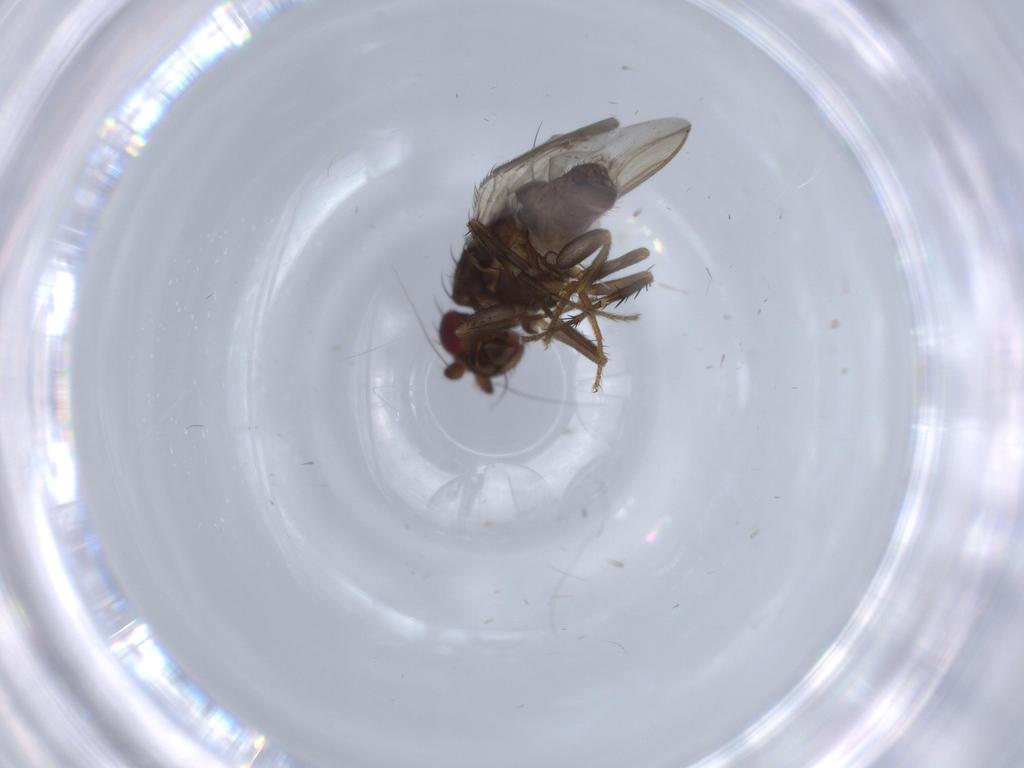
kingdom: Animalia
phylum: Arthropoda
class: Insecta
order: Diptera
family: Sphaeroceridae
